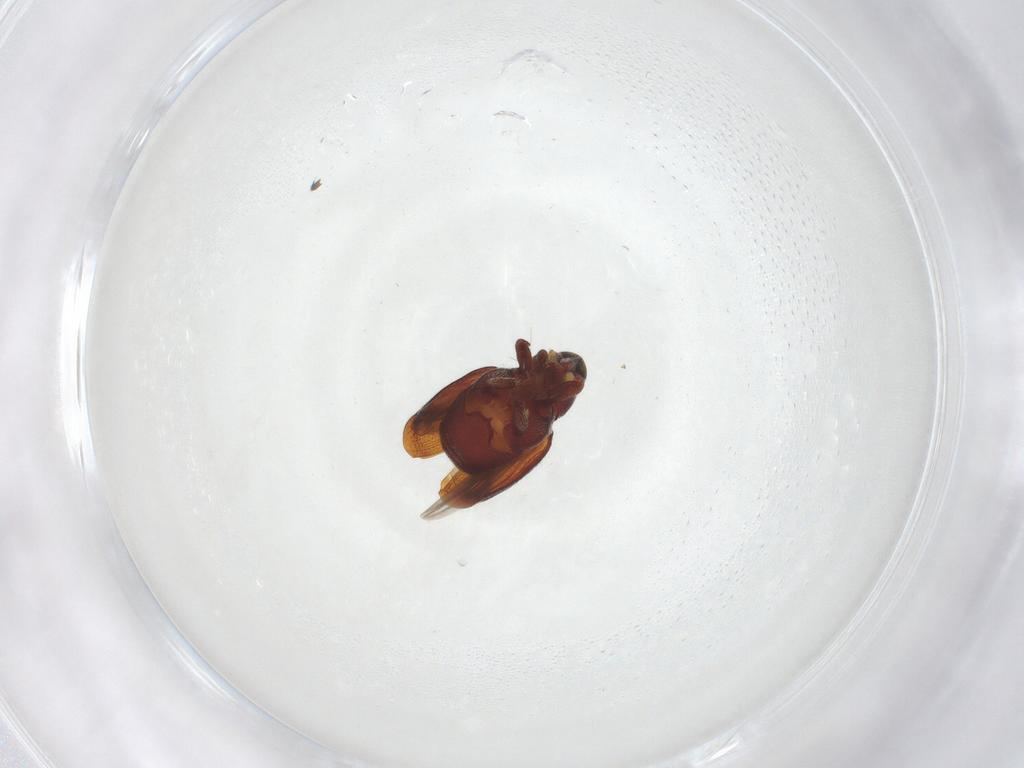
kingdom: Animalia
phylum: Arthropoda
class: Insecta
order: Coleoptera
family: Curculionidae
